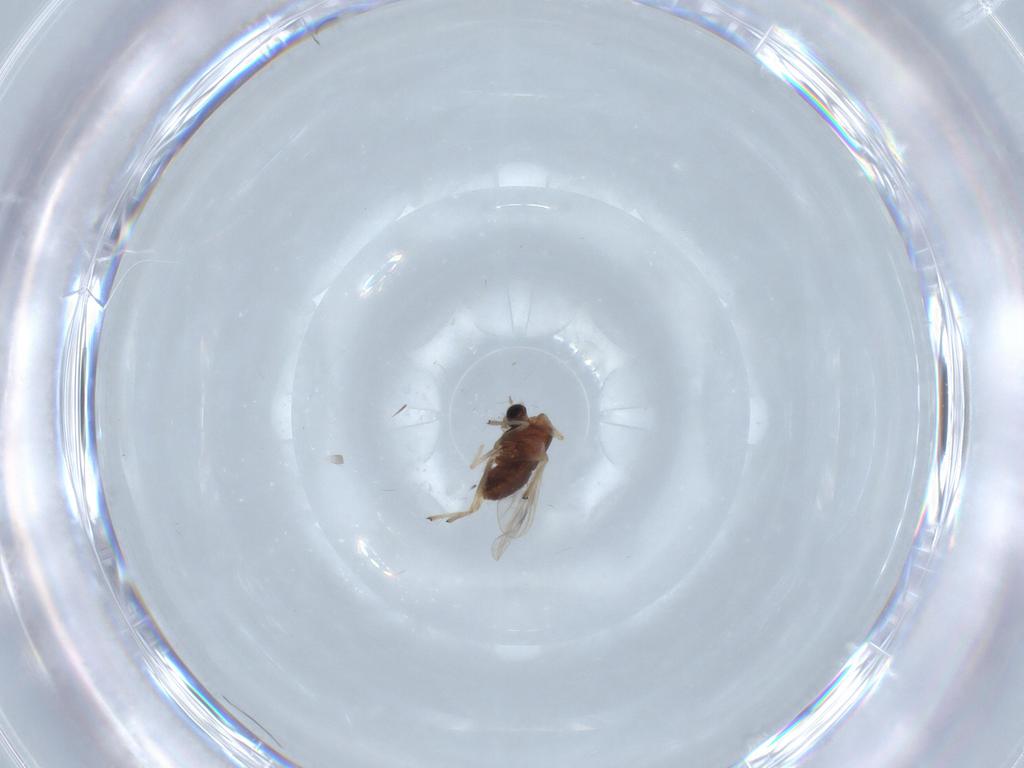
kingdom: Animalia
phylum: Arthropoda
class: Insecta
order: Diptera
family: Chironomidae
